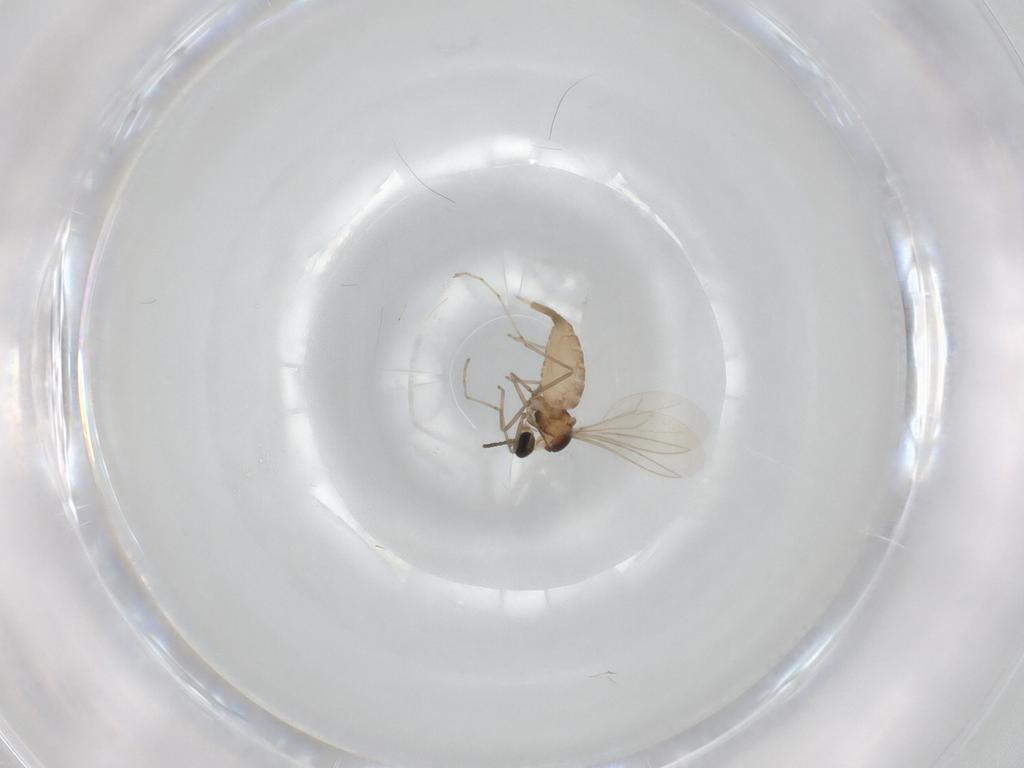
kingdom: Animalia
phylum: Arthropoda
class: Insecta
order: Diptera
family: Cecidomyiidae
